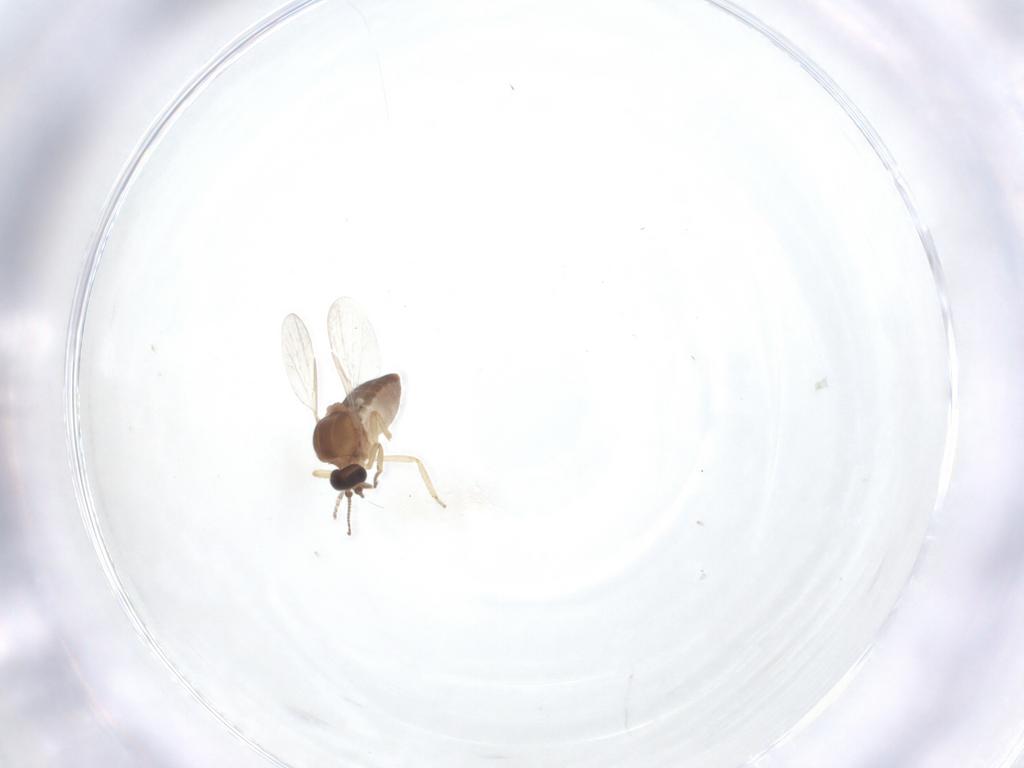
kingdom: Animalia
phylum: Arthropoda
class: Insecta
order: Diptera
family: Ceratopogonidae
